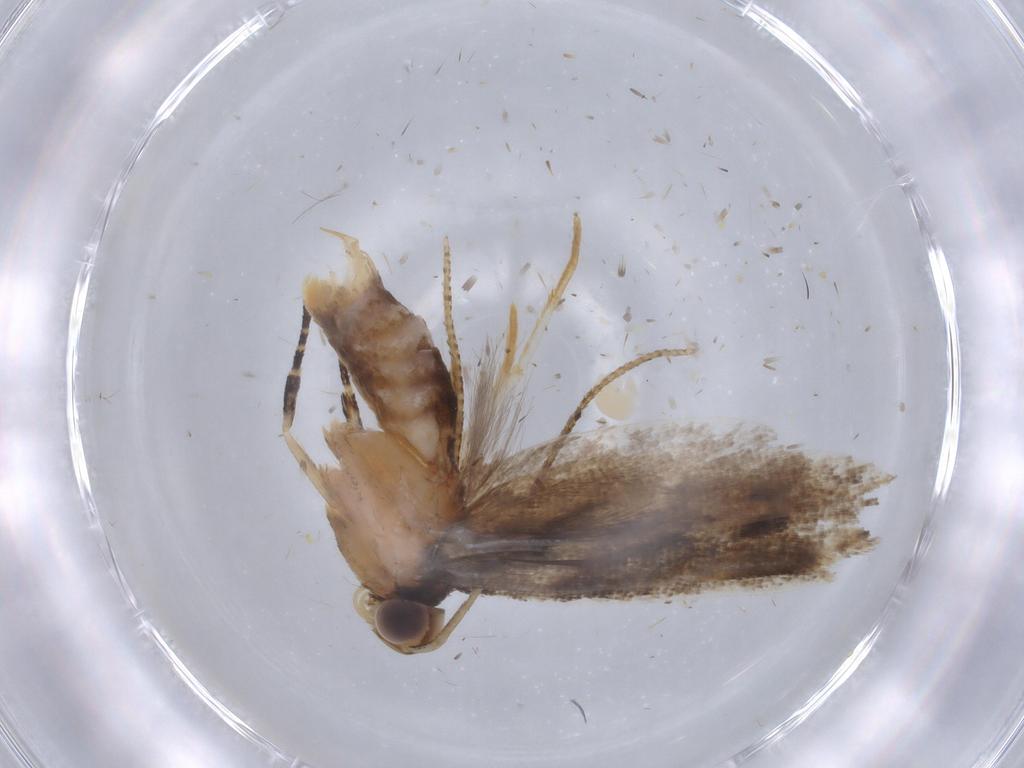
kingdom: Animalia
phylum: Arthropoda
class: Insecta
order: Lepidoptera
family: Gelechiidae
